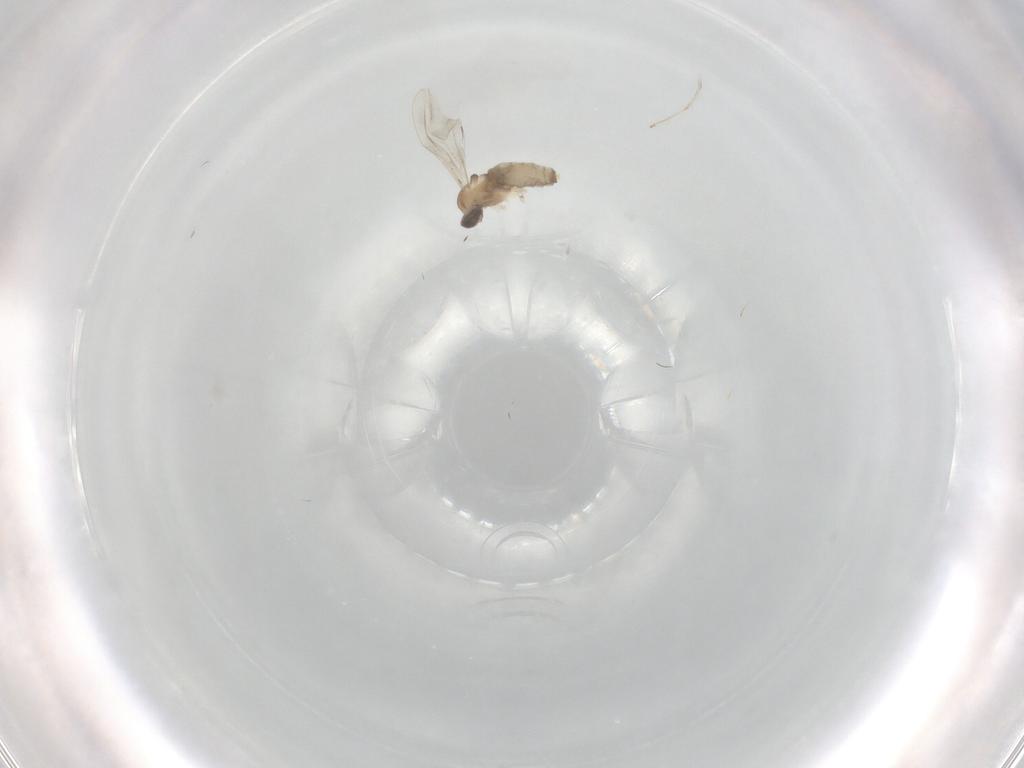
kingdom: Animalia
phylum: Arthropoda
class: Insecta
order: Diptera
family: Cecidomyiidae
